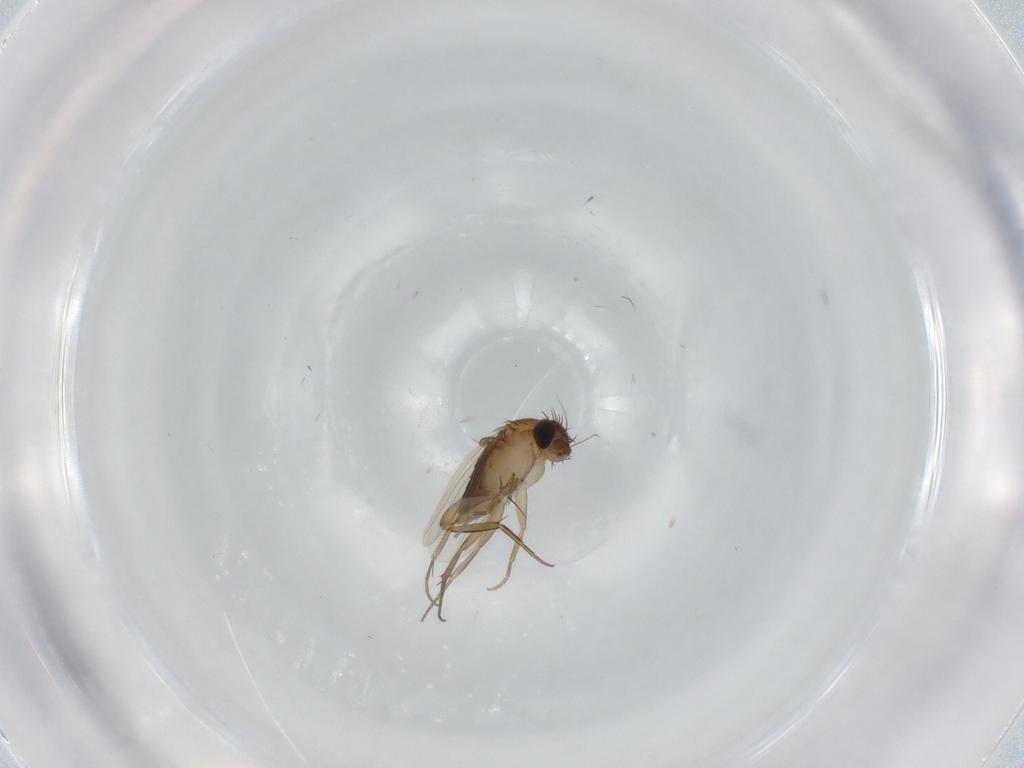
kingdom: Animalia
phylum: Arthropoda
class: Insecta
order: Diptera
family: Phoridae
